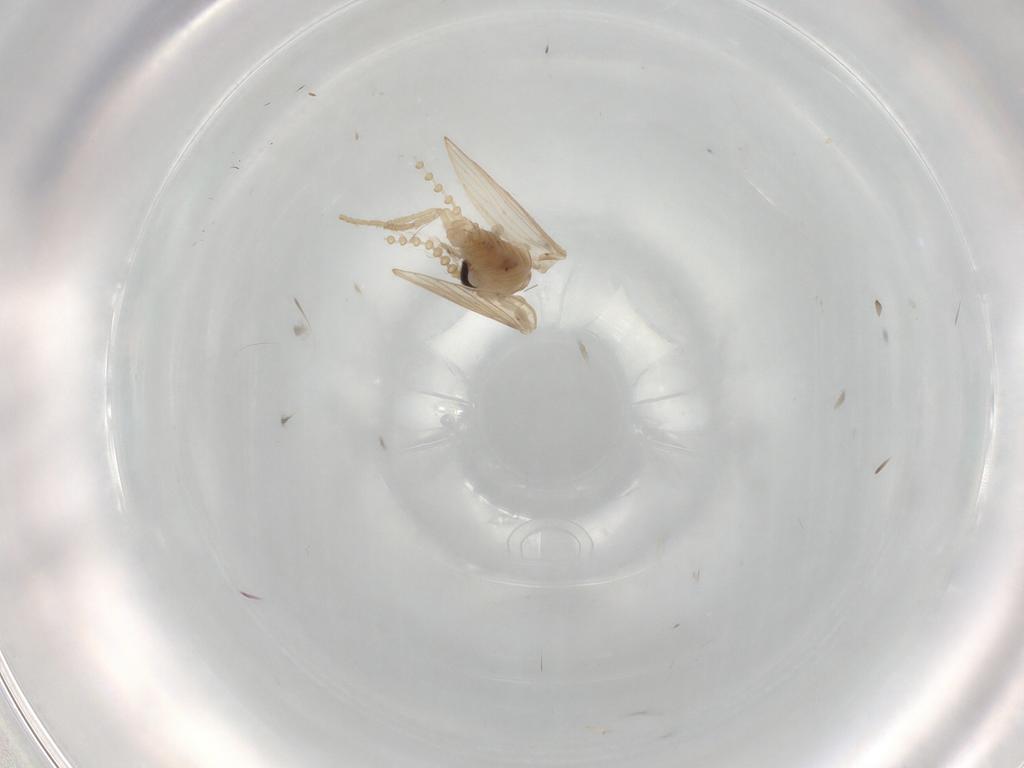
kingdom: Animalia
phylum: Arthropoda
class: Insecta
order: Diptera
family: Psychodidae
